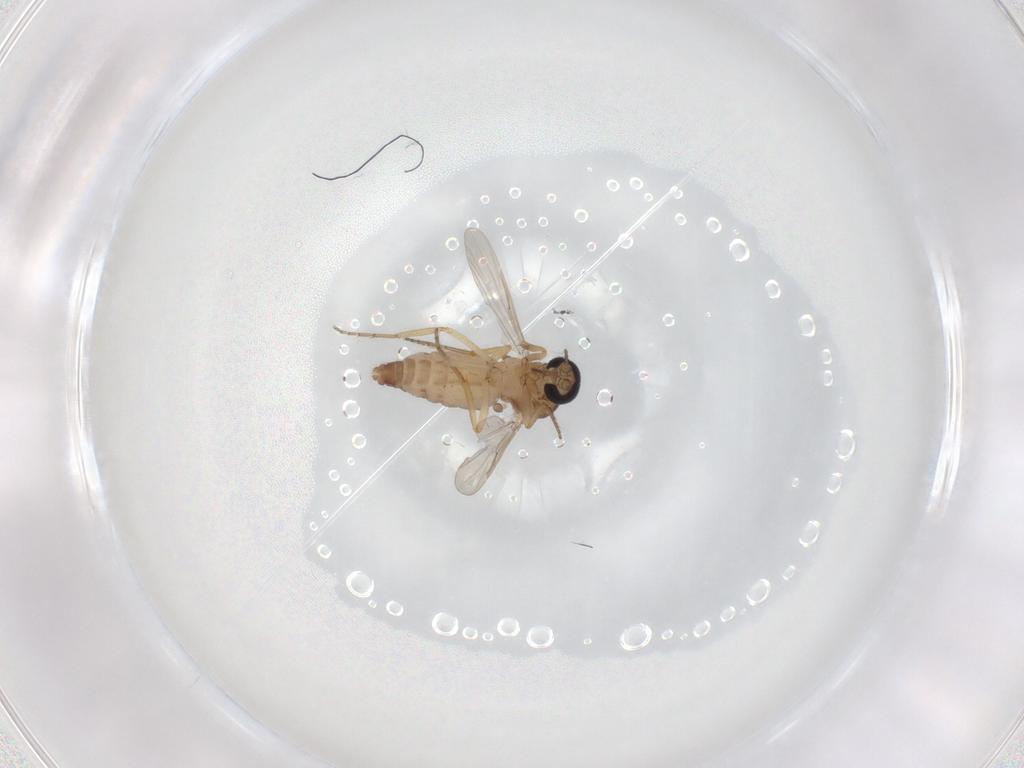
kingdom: Animalia
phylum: Arthropoda
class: Insecta
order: Diptera
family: Ceratopogonidae
